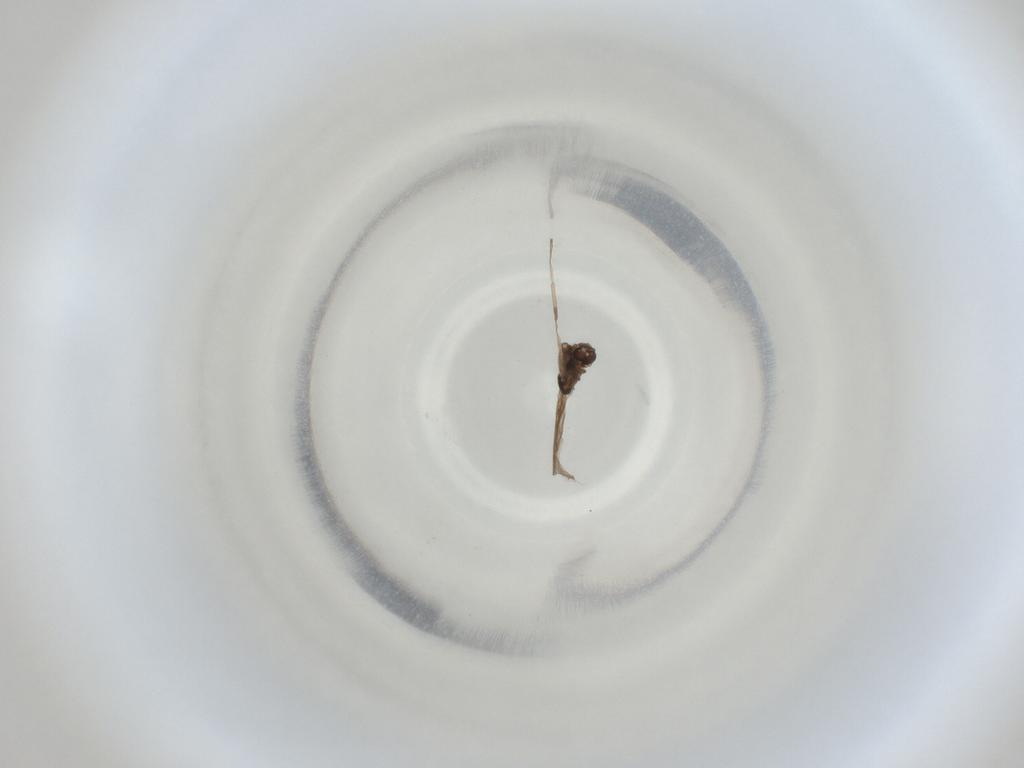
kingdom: Animalia
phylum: Arthropoda
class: Insecta
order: Diptera
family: Cecidomyiidae
